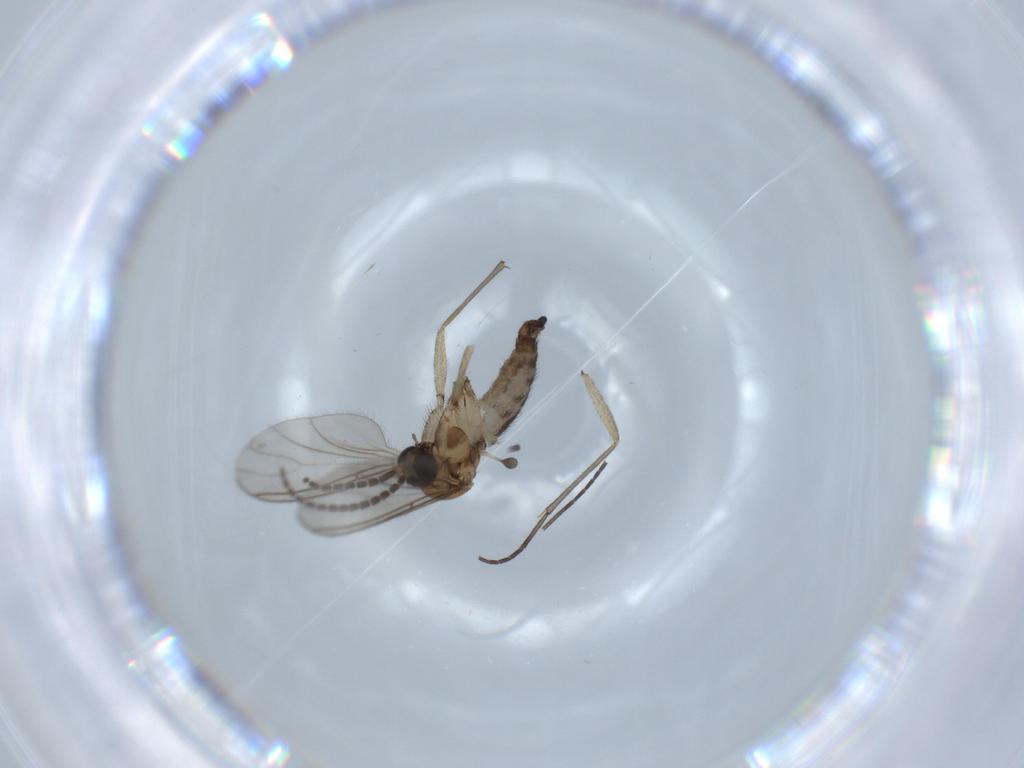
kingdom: Animalia
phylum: Arthropoda
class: Insecta
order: Diptera
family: Sciaridae
